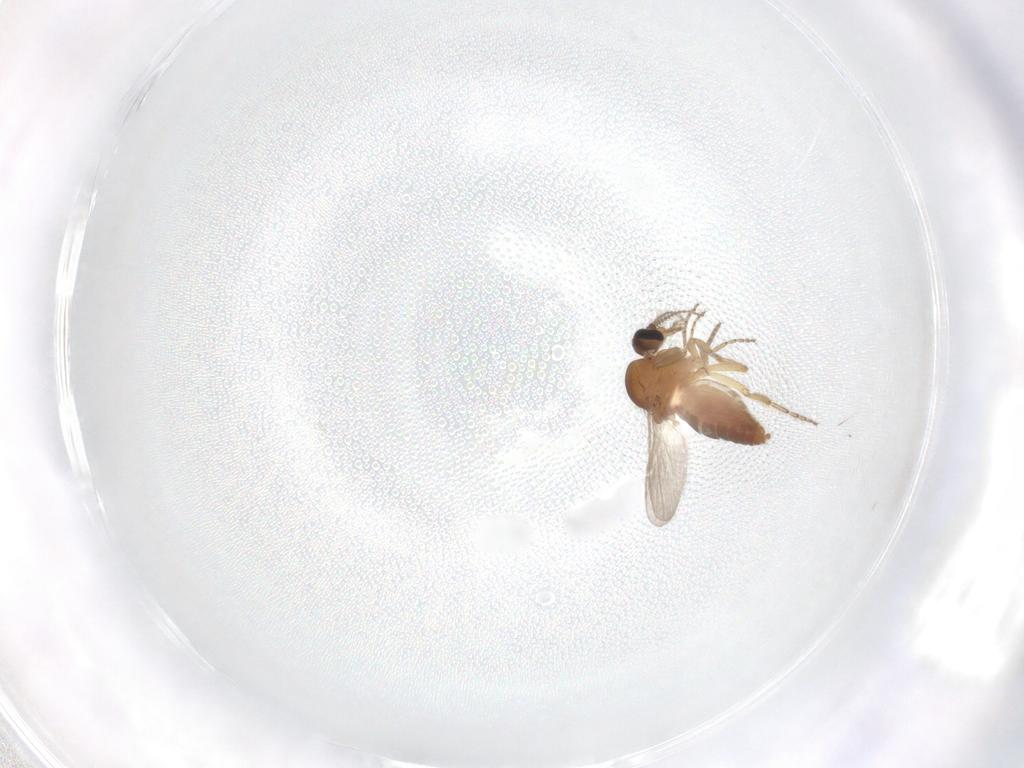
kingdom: Animalia
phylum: Arthropoda
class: Insecta
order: Diptera
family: Ceratopogonidae
